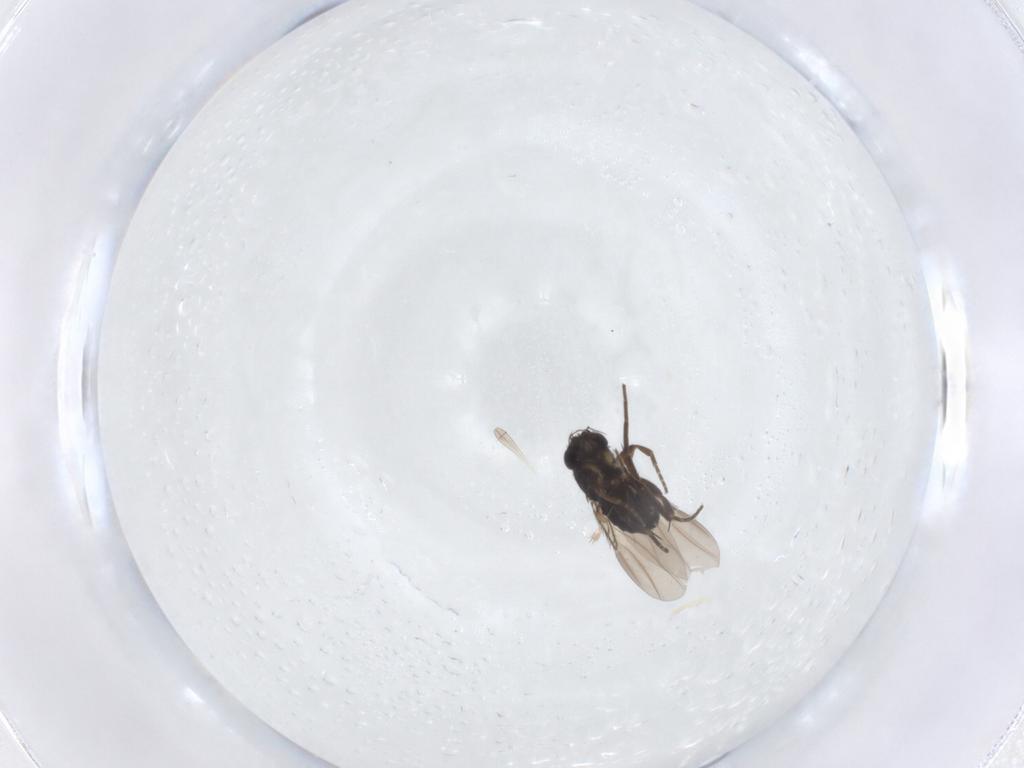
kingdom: Animalia
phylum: Arthropoda
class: Insecta
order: Diptera
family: Phoridae
